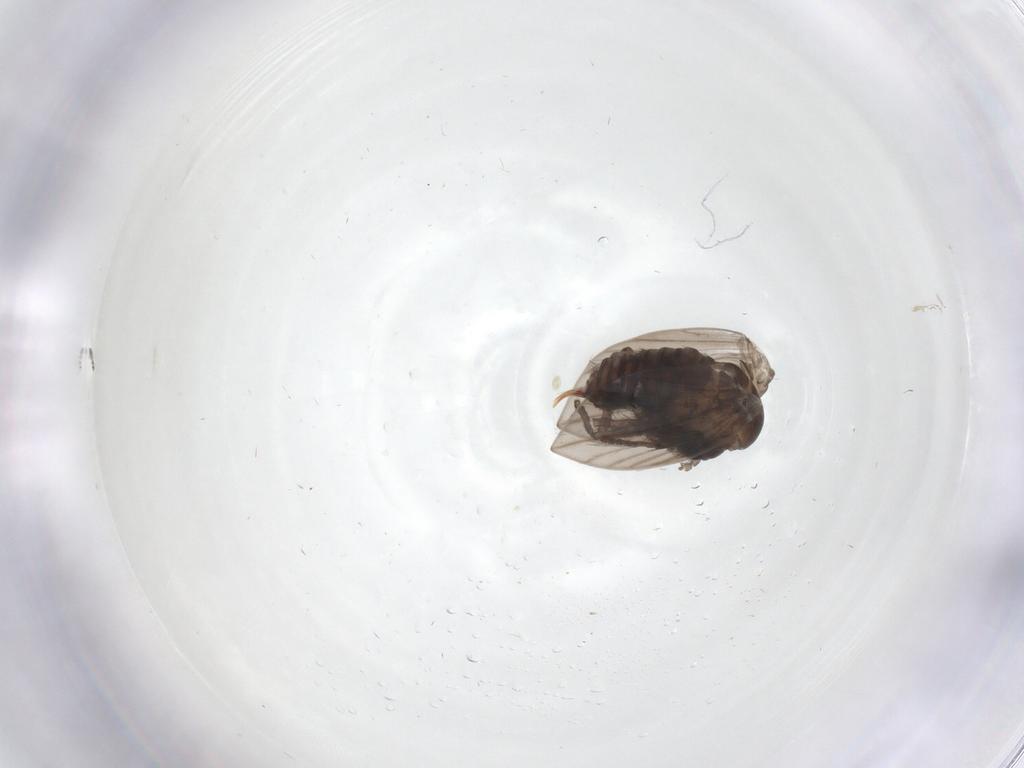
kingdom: Animalia
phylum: Arthropoda
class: Insecta
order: Diptera
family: Psychodidae
